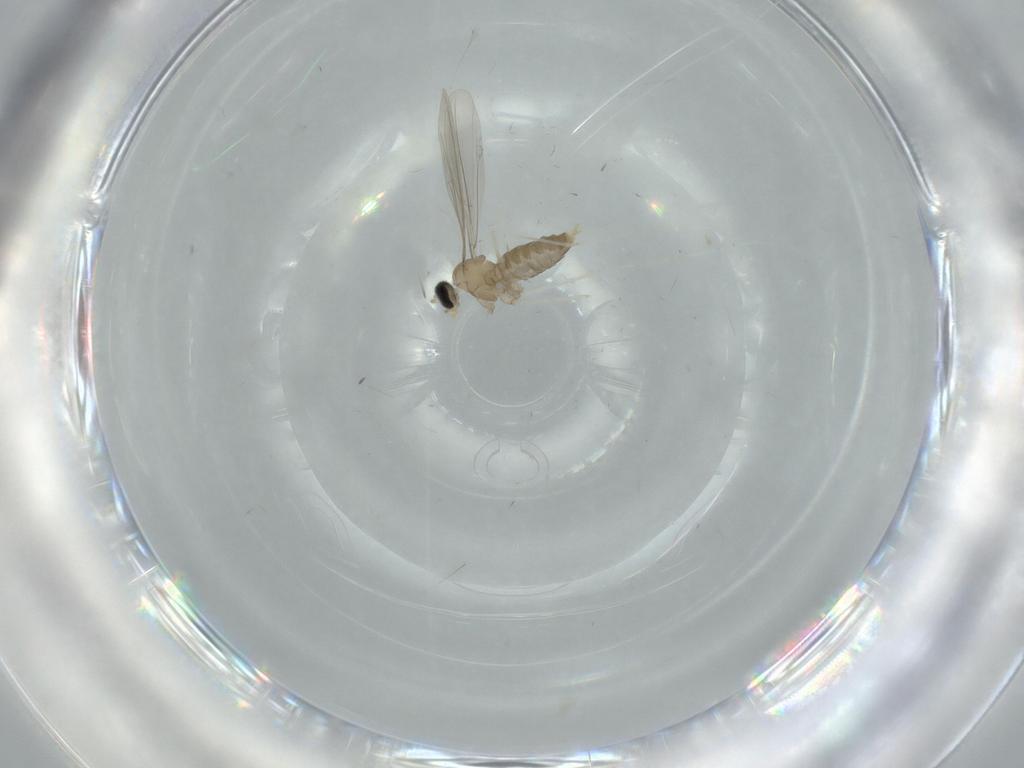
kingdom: Animalia
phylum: Arthropoda
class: Insecta
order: Diptera
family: Cecidomyiidae
